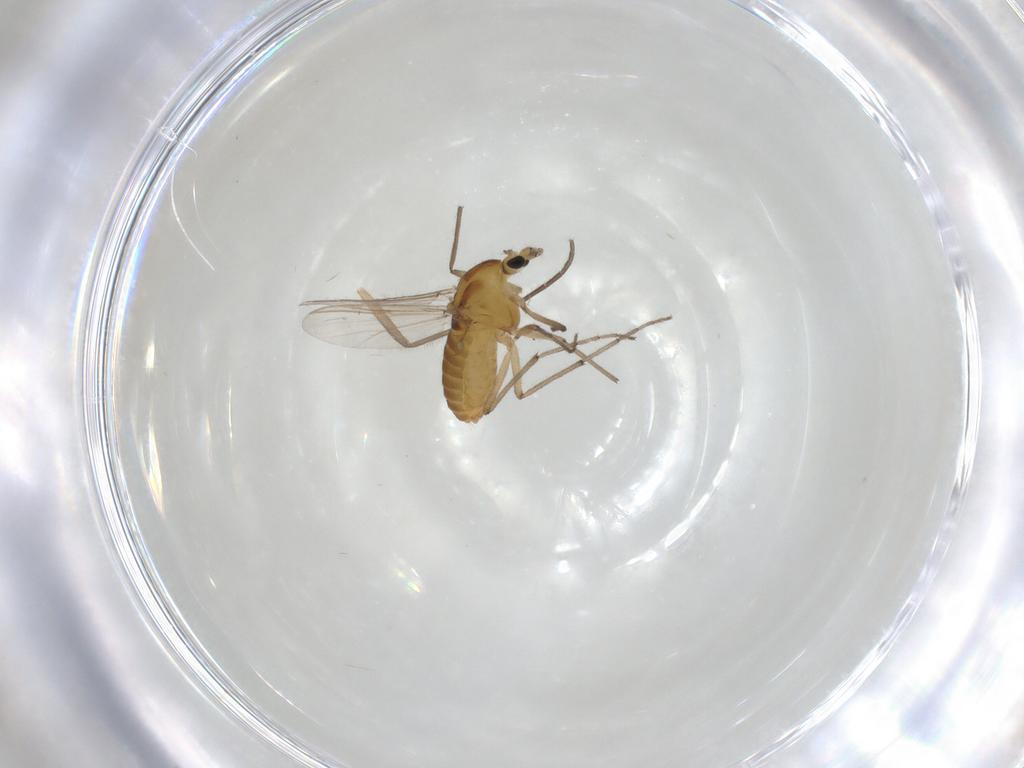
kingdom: Animalia
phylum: Arthropoda
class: Insecta
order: Diptera
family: Chironomidae
